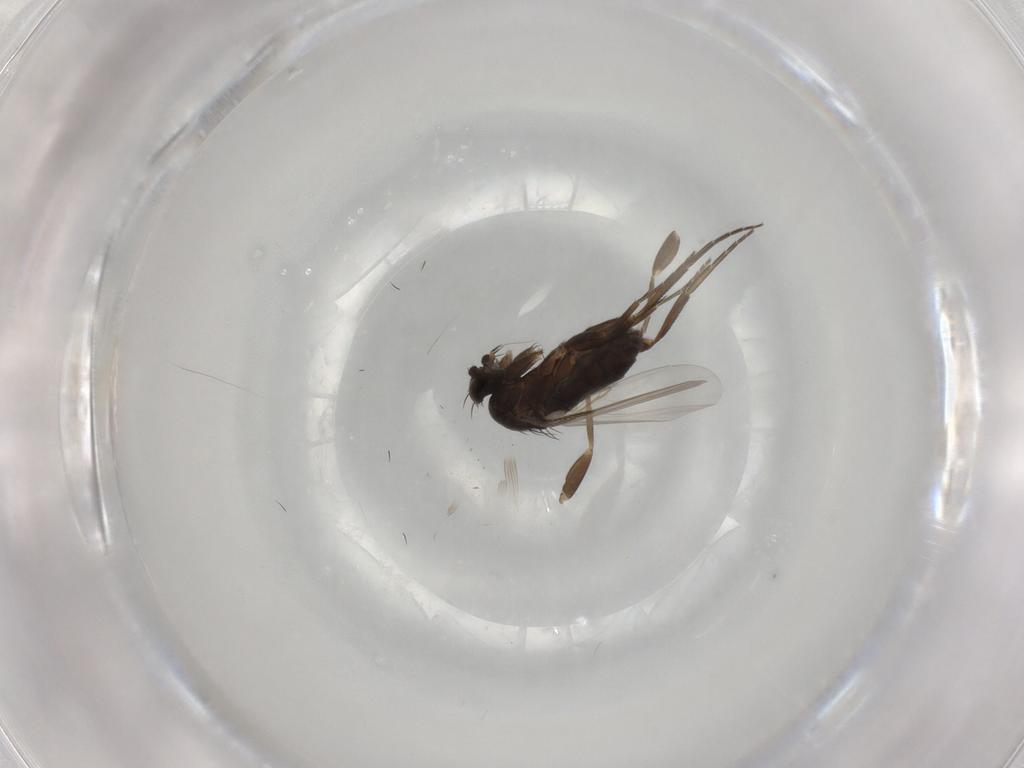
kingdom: Animalia
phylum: Arthropoda
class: Insecta
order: Diptera
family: Phoridae
